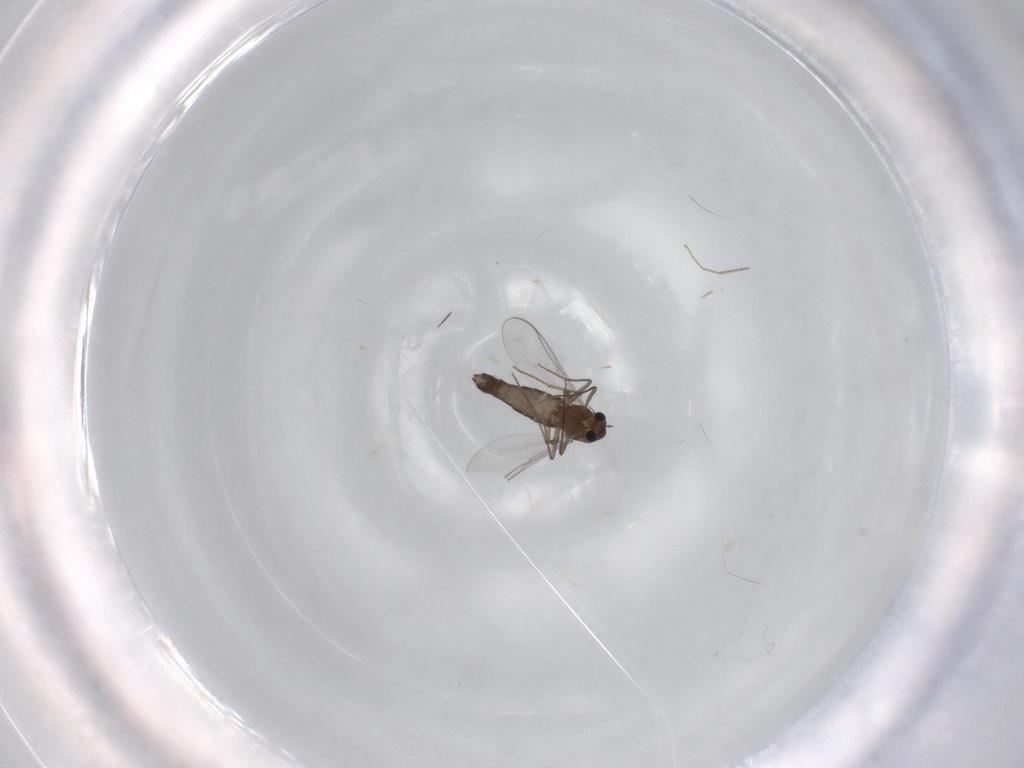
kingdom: Animalia
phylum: Arthropoda
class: Insecta
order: Diptera
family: Chironomidae
